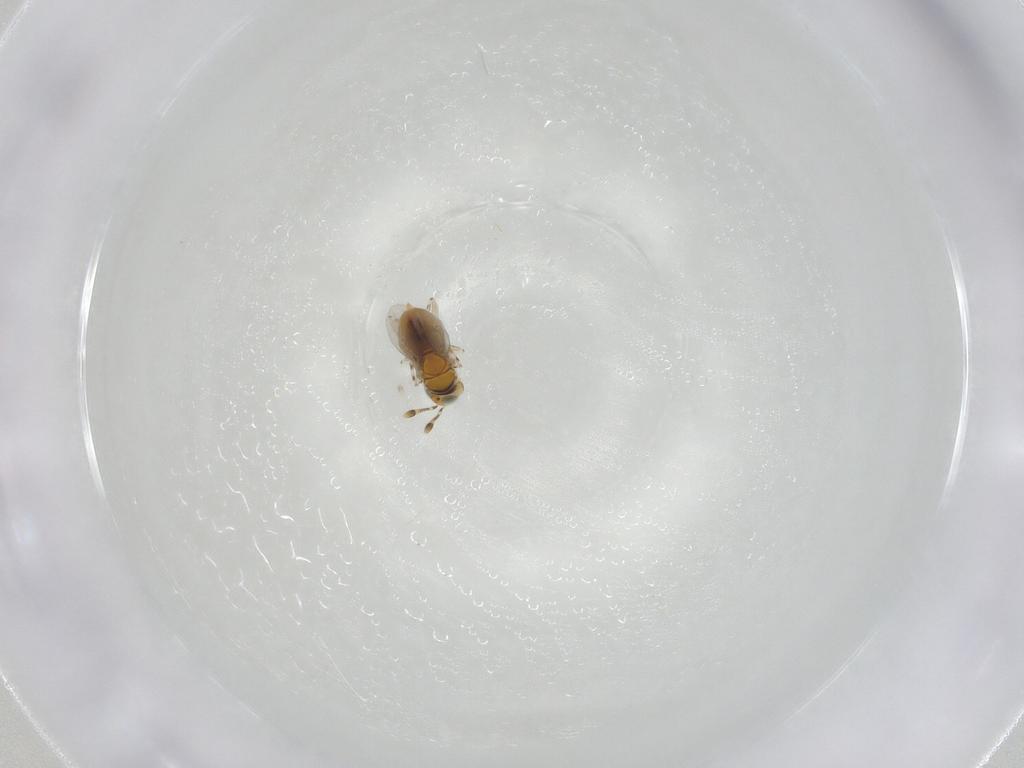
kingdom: Animalia
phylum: Arthropoda
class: Insecta
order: Hymenoptera
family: Encyrtidae
